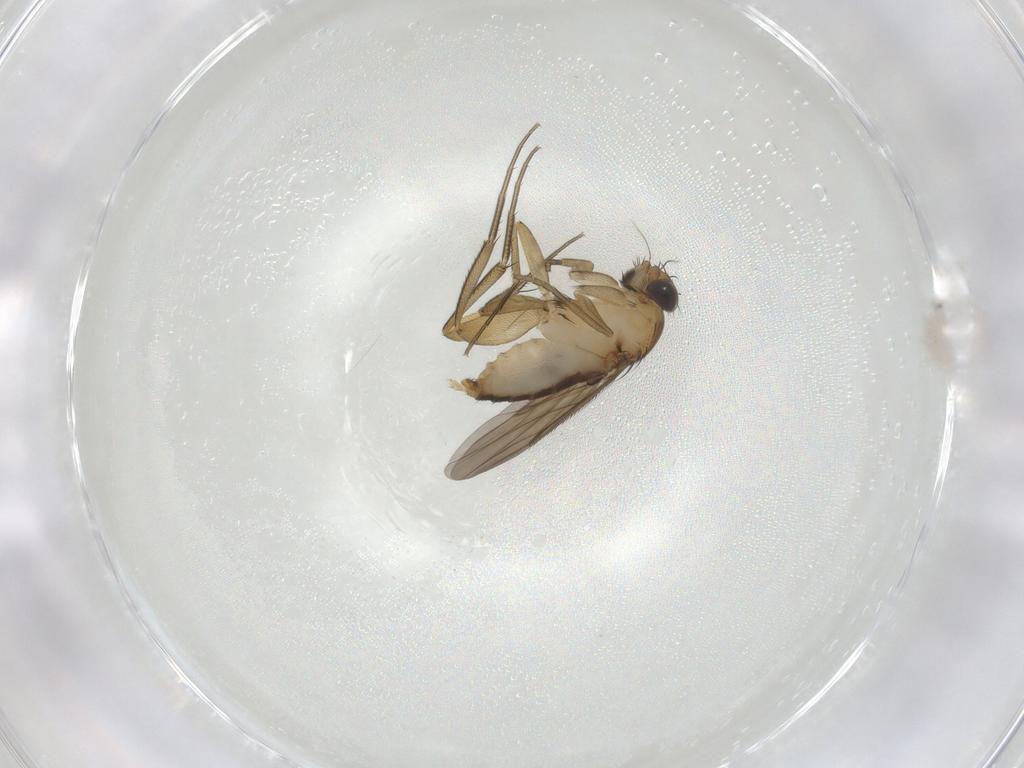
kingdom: Animalia
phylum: Arthropoda
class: Insecta
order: Diptera
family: Phoridae
